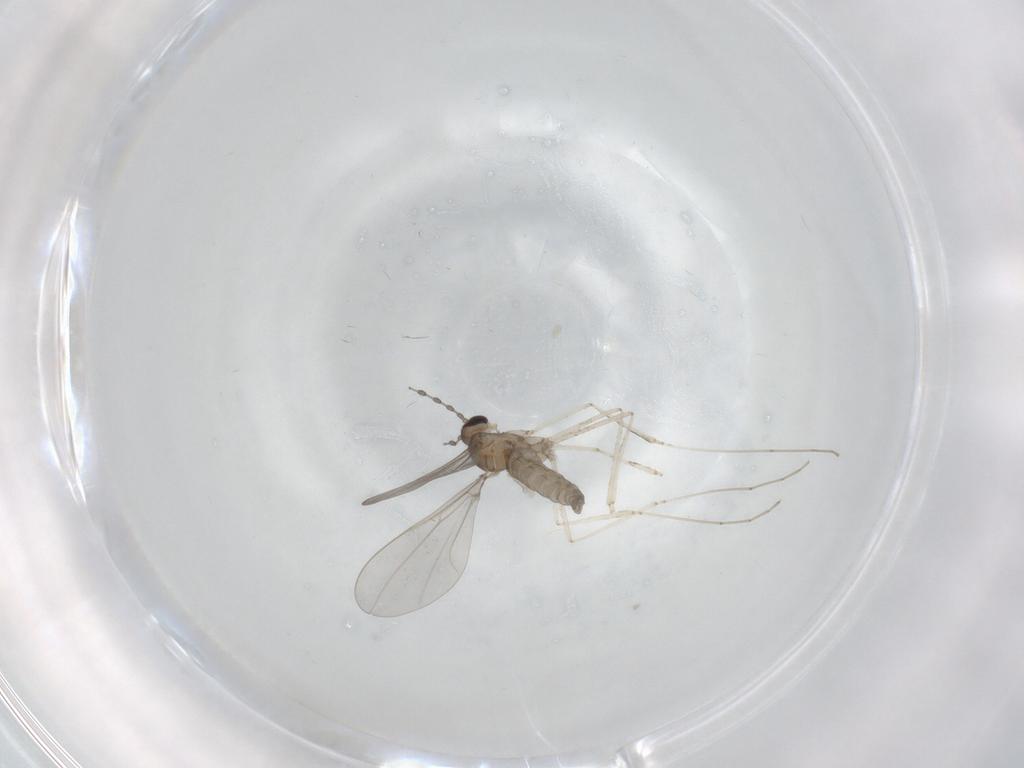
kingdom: Animalia
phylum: Arthropoda
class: Insecta
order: Diptera
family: Cecidomyiidae
